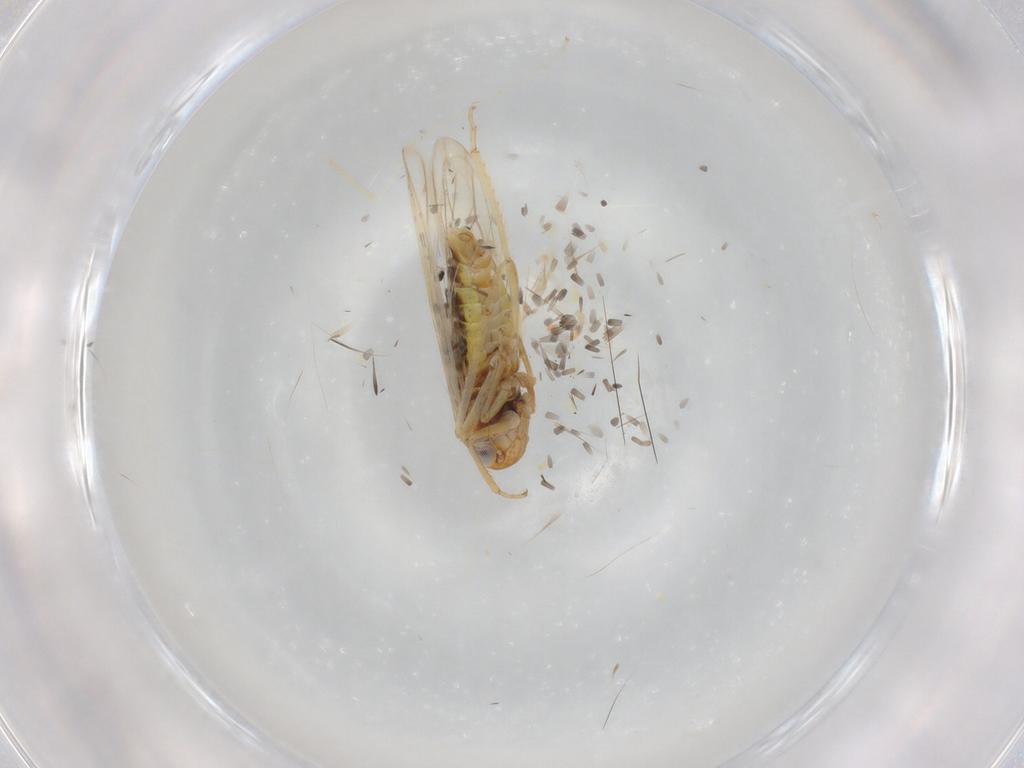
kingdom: Animalia
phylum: Arthropoda
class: Insecta
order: Hemiptera
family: Cicadellidae
